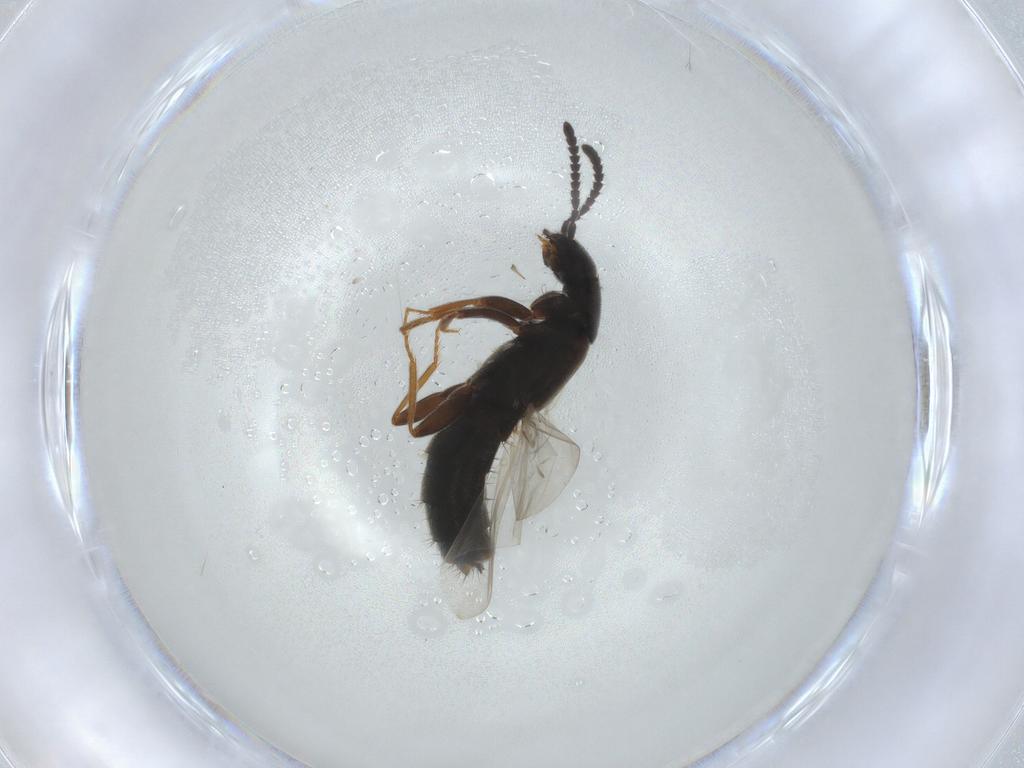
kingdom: Animalia
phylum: Arthropoda
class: Insecta
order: Coleoptera
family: Staphylinidae
